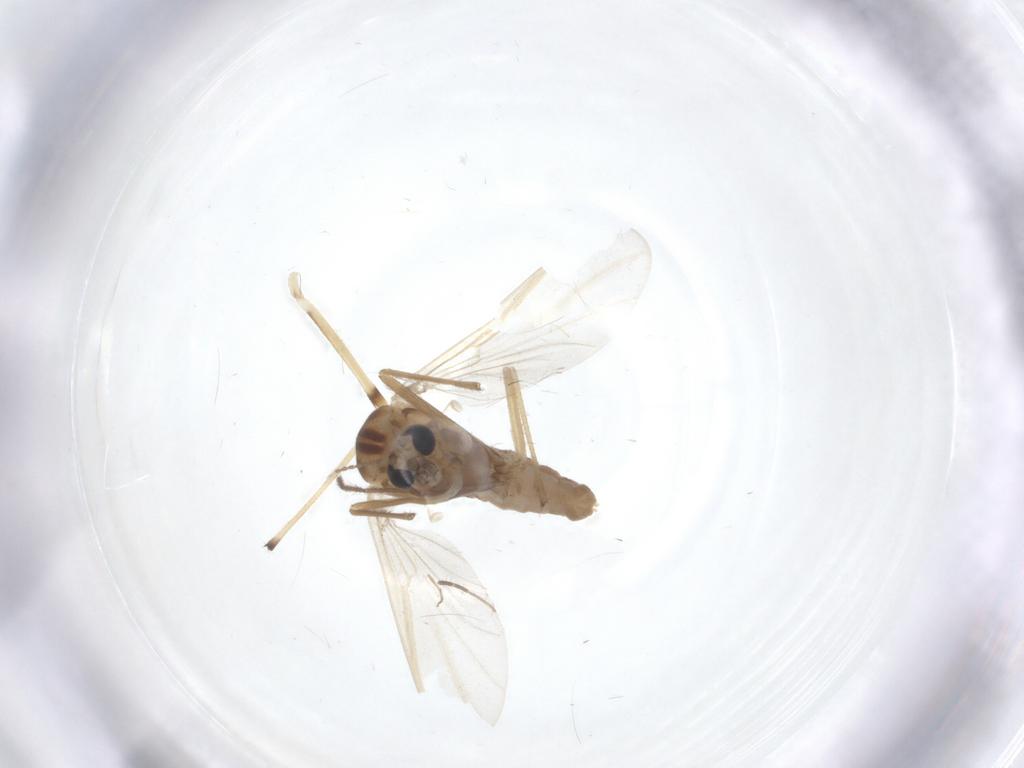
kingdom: Animalia
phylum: Arthropoda
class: Insecta
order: Diptera
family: Chironomidae
